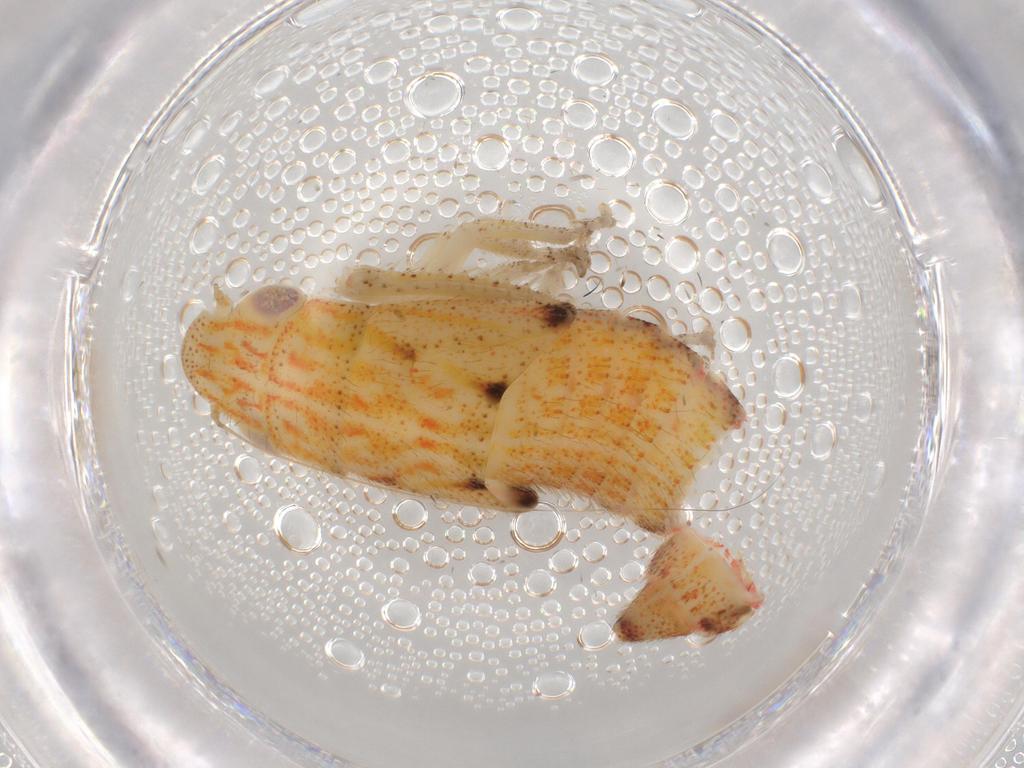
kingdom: Animalia
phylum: Arthropoda
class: Insecta
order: Hemiptera
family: Cicadellidae
